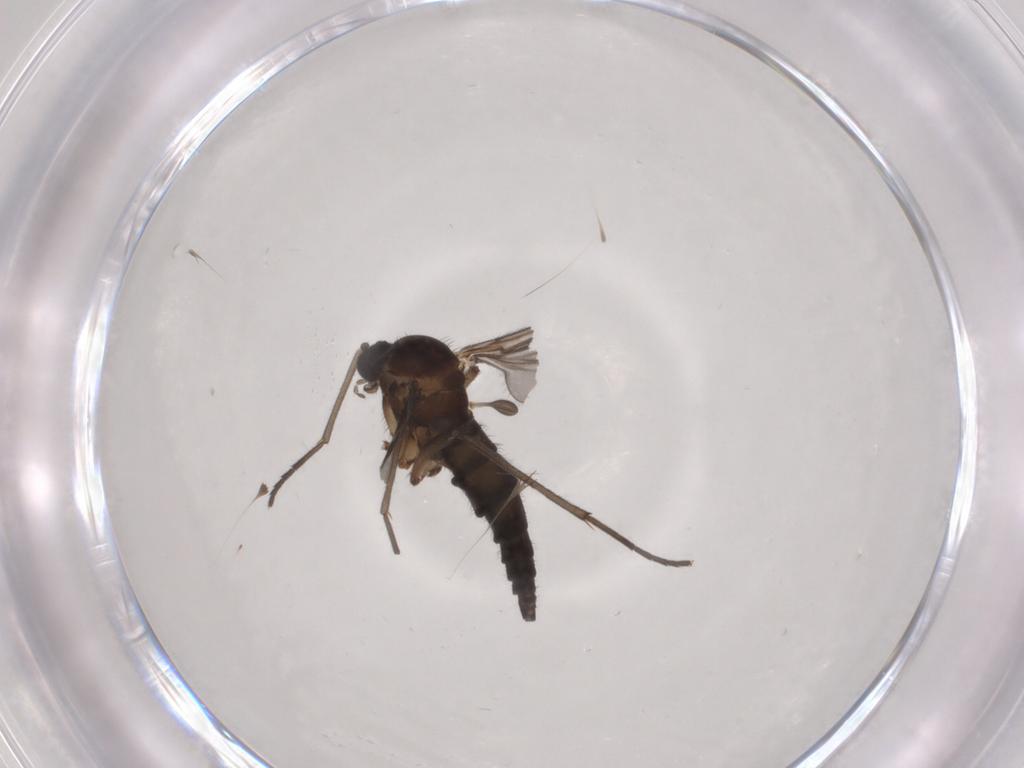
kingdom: Animalia
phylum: Arthropoda
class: Insecta
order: Diptera
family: Sciaridae
